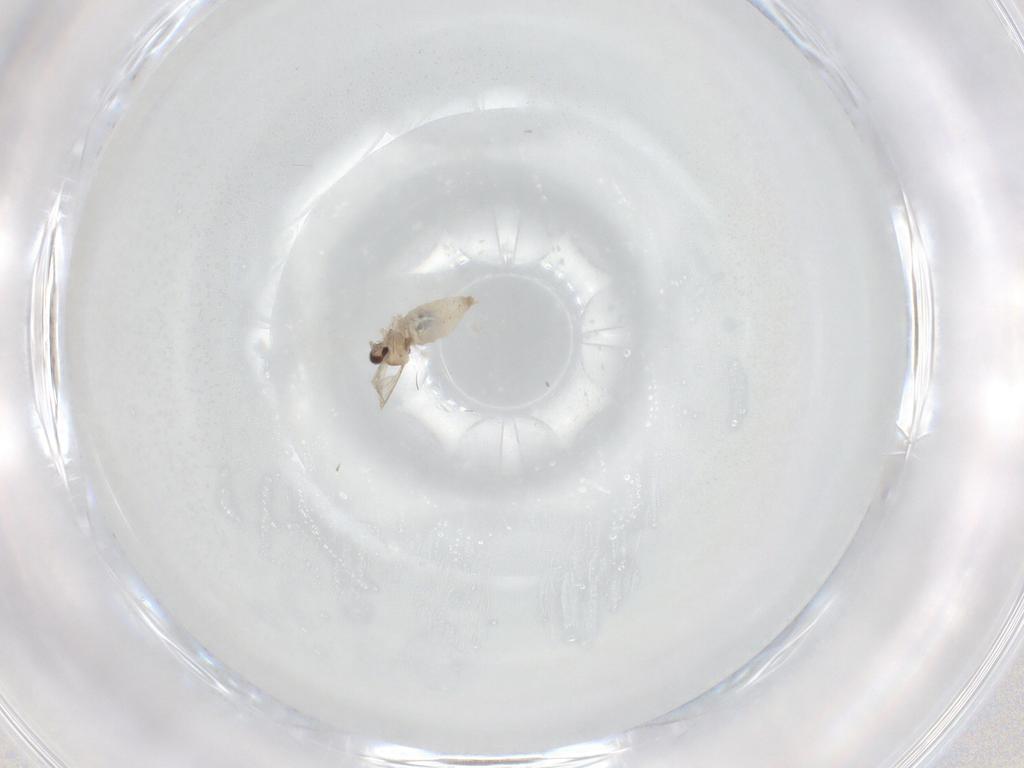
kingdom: Animalia
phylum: Arthropoda
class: Insecta
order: Diptera
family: Cecidomyiidae
